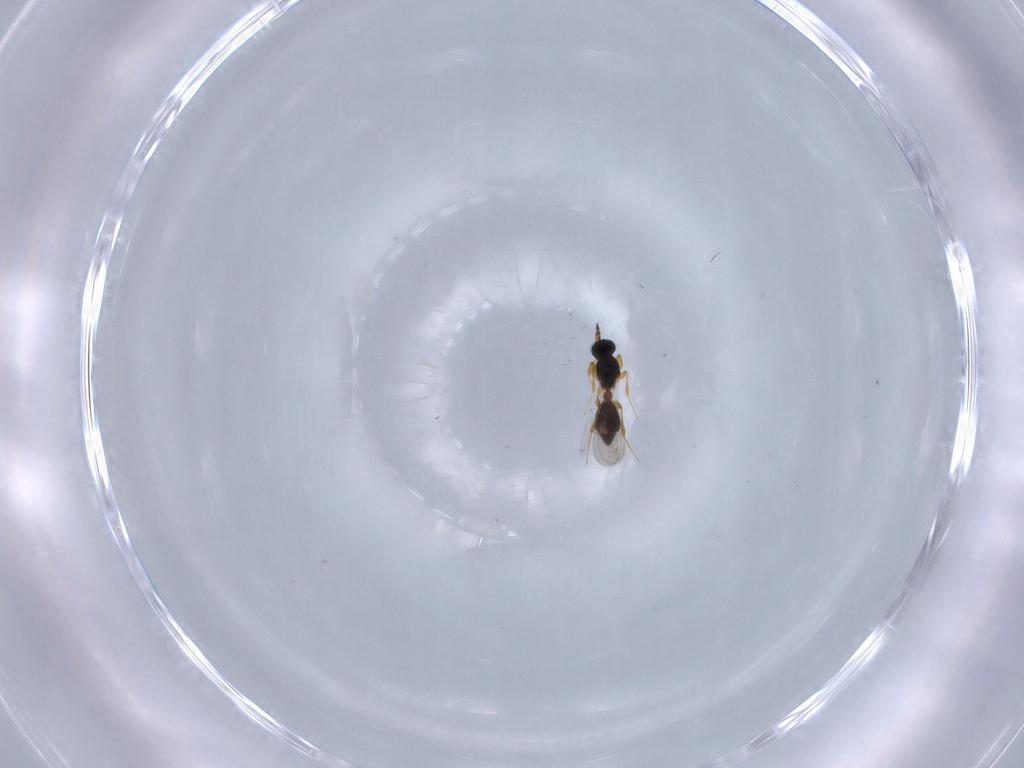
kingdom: Animalia
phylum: Arthropoda
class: Insecta
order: Hymenoptera
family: Platygastridae
